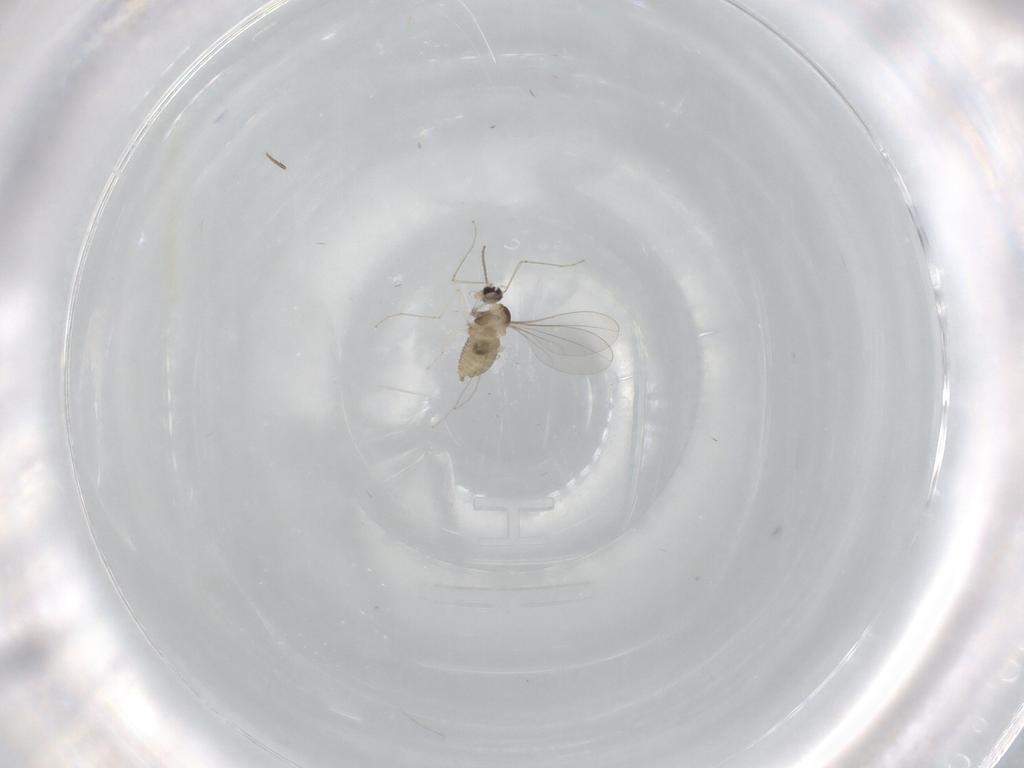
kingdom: Animalia
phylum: Arthropoda
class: Insecta
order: Diptera
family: Cecidomyiidae
